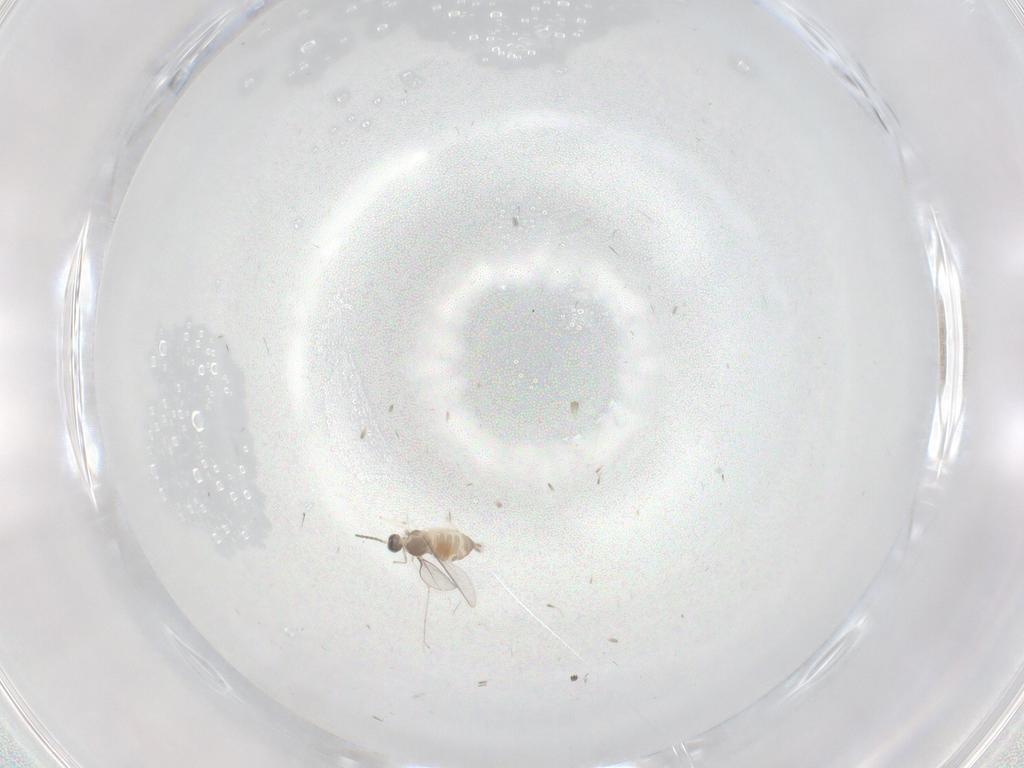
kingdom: Animalia
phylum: Arthropoda
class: Insecta
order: Diptera
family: Cecidomyiidae
